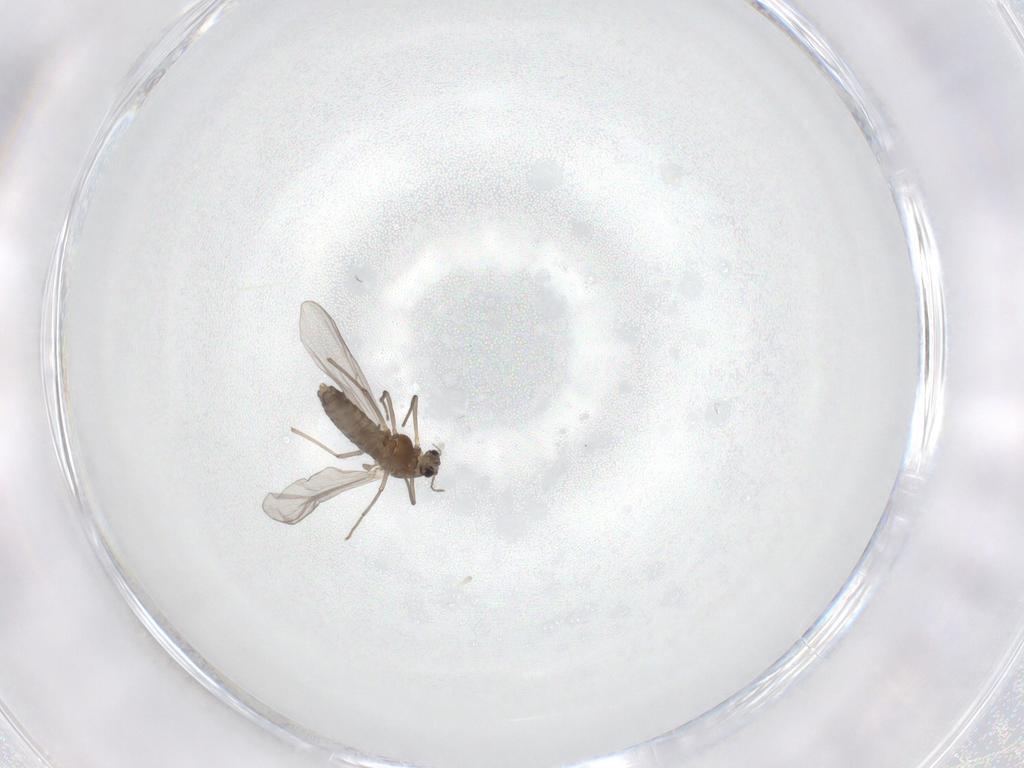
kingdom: Animalia
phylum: Arthropoda
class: Insecta
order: Diptera
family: Chironomidae
